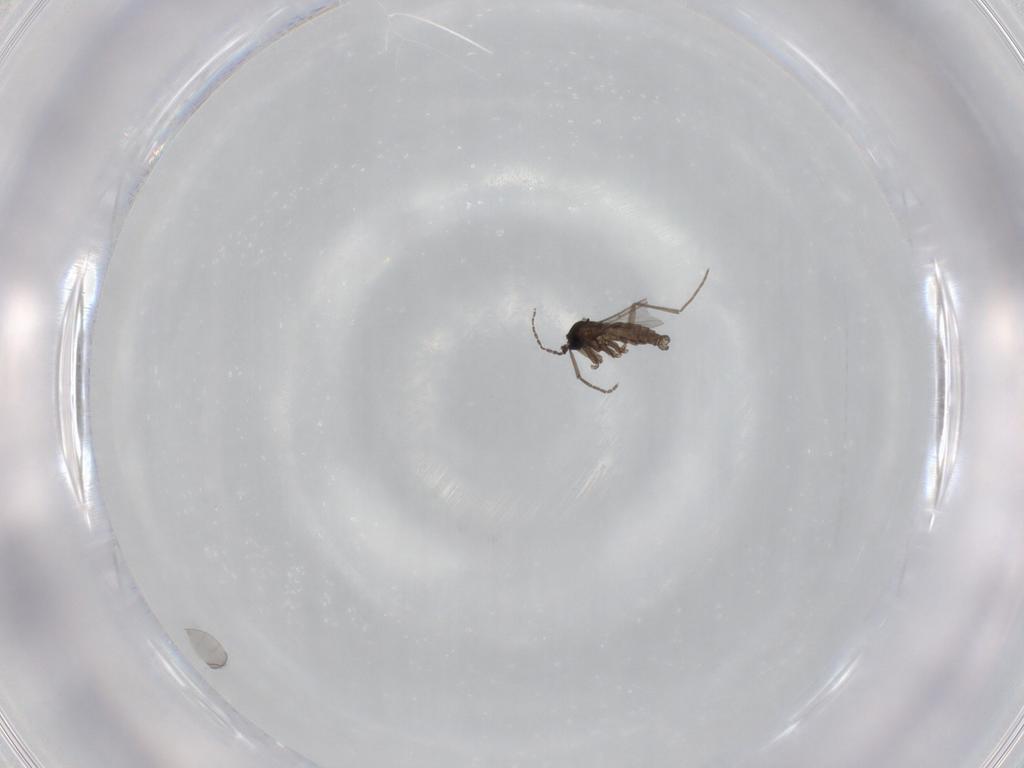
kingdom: Animalia
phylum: Arthropoda
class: Insecta
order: Diptera
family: Sciaridae
